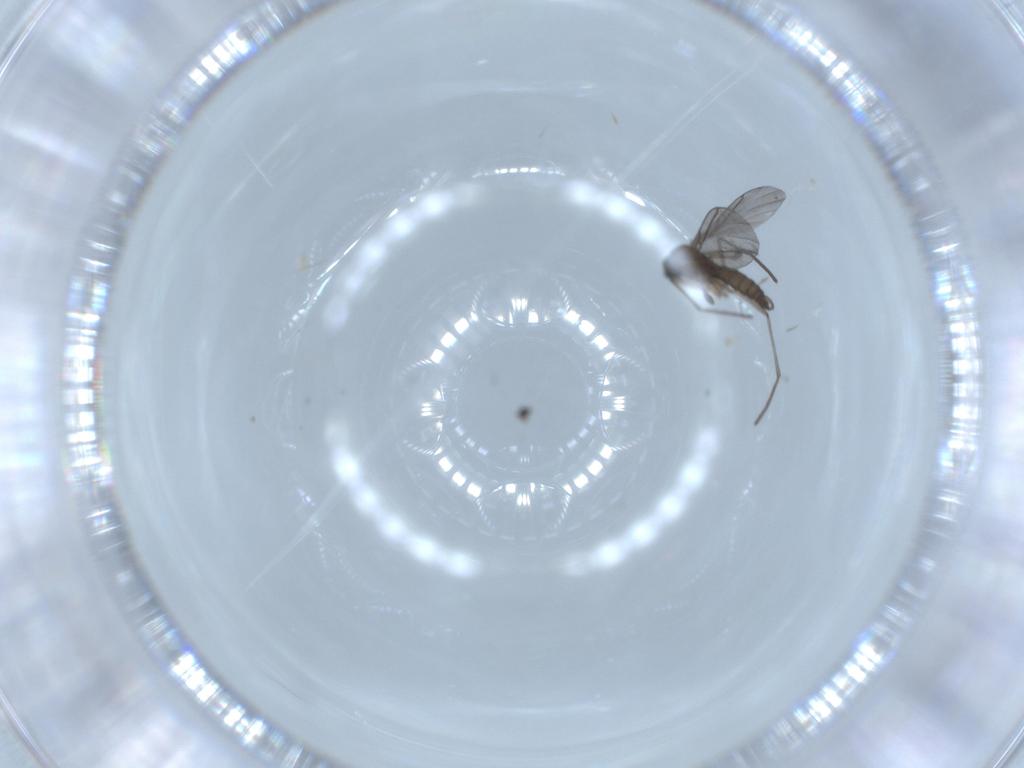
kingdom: Animalia
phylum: Arthropoda
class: Insecta
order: Diptera
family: Sciaridae
